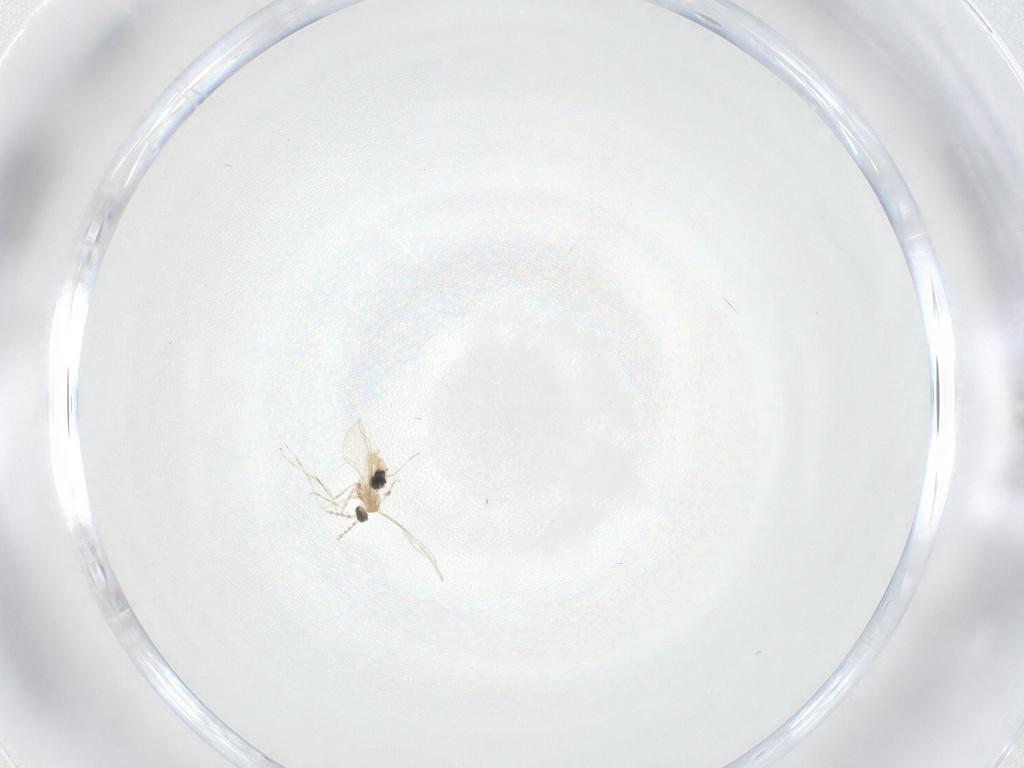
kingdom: Animalia
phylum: Arthropoda
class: Insecta
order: Diptera
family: Cecidomyiidae
